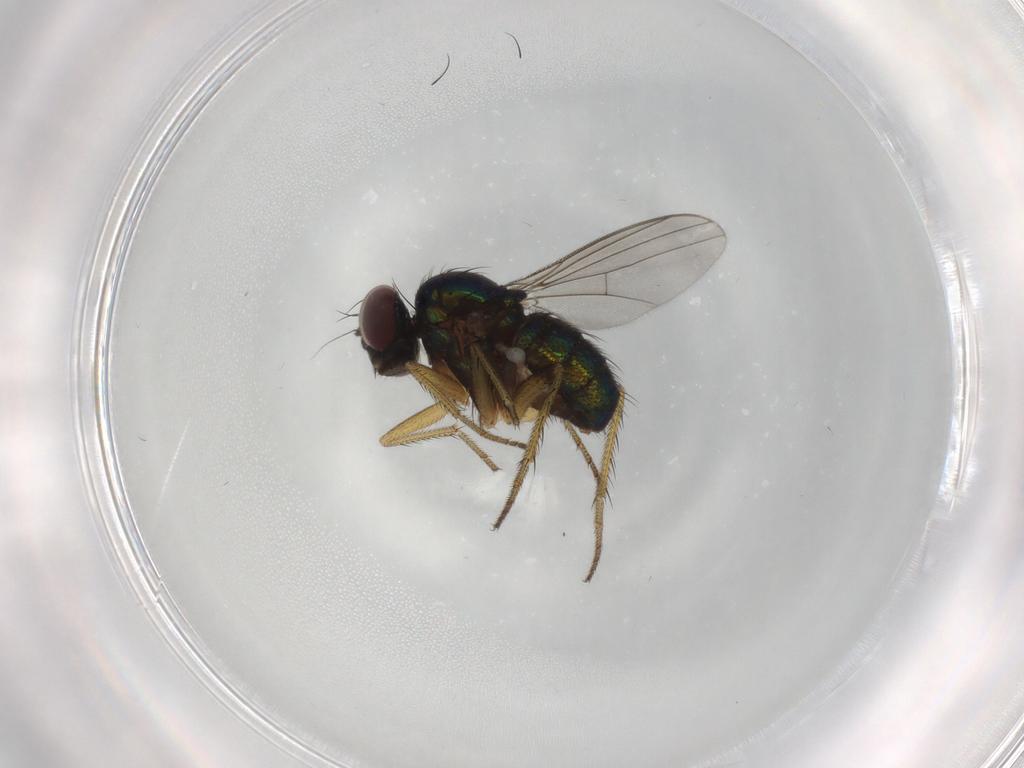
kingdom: Animalia
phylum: Arthropoda
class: Insecta
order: Diptera
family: Dolichopodidae
